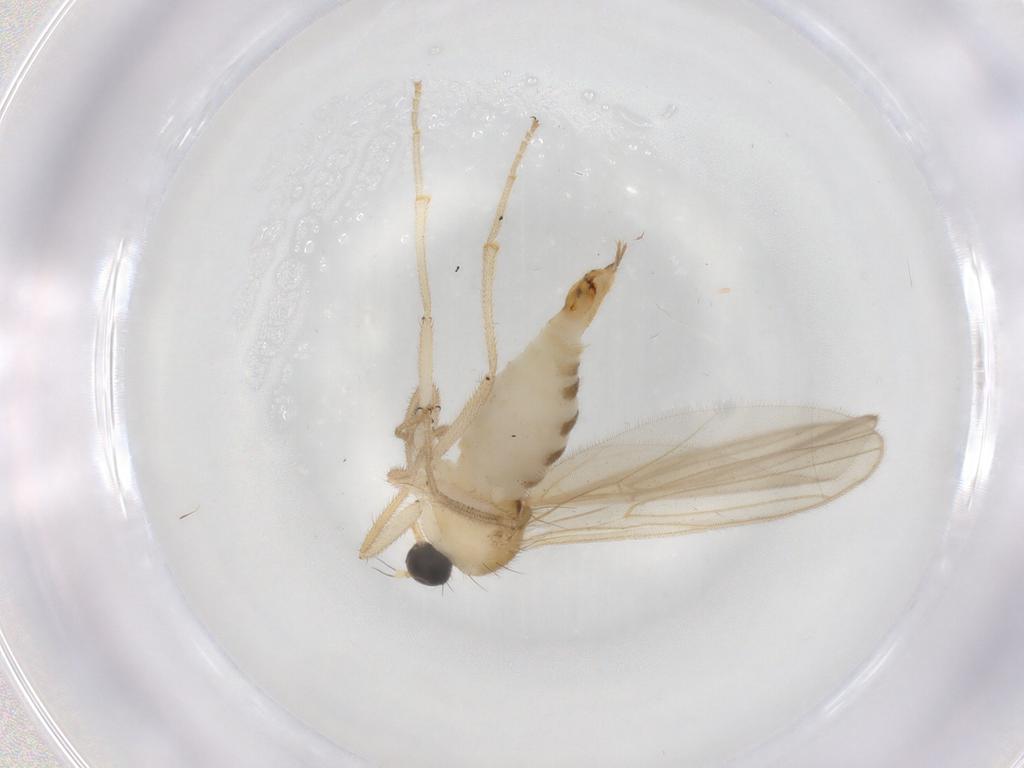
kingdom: Animalia
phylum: Arthropoda
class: Insecta
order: Diptera
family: Hybotidae
